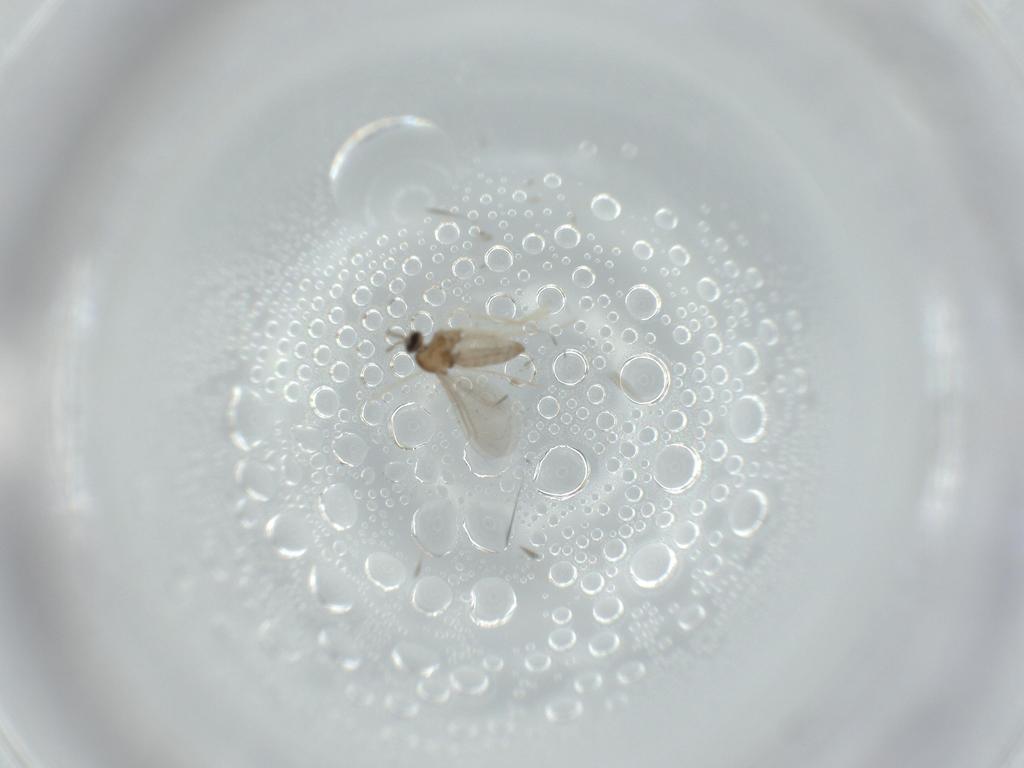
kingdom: Animalia
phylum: Arthropoda
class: Insecta
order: Diptera
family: Cecidomyiidae
